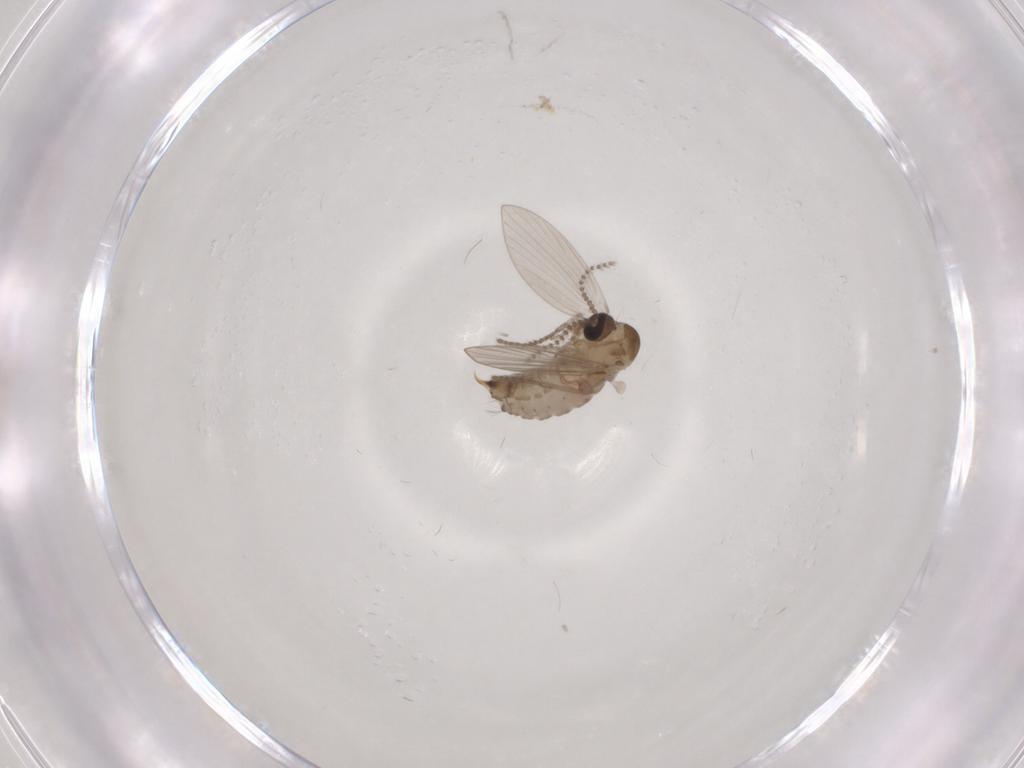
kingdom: Animalia
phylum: Arthropoda
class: Insecta
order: Diptera
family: Psychodidae
